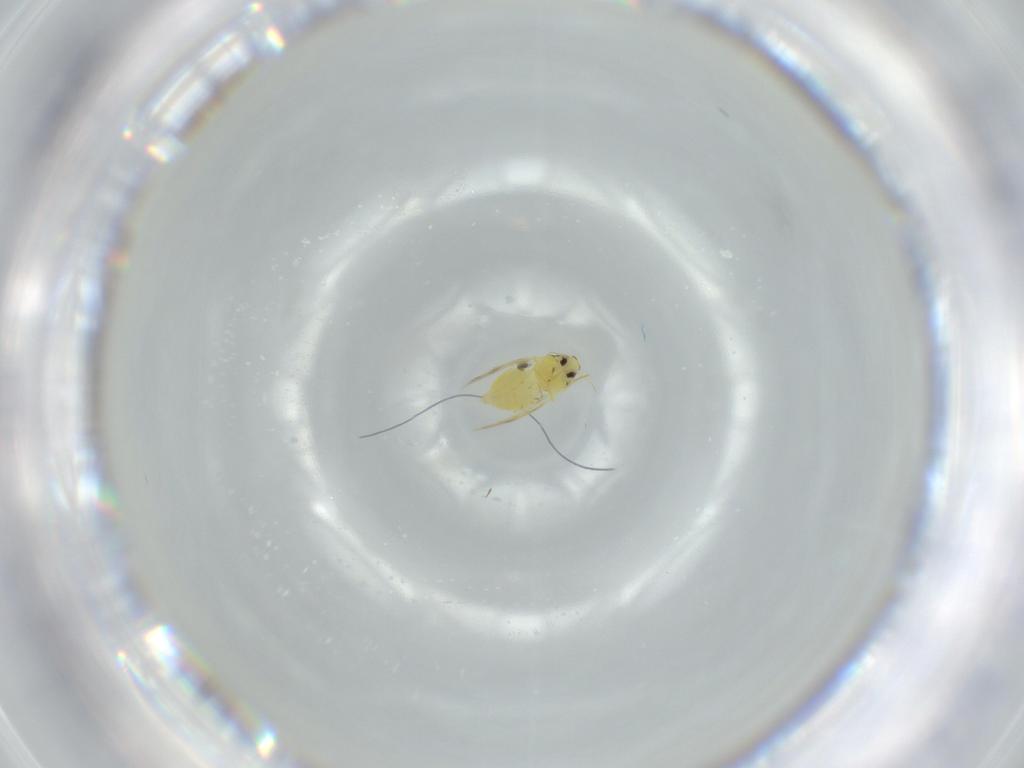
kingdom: Animalia
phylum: Arthropoda
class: Insecta
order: Hemiptera
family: Aleyrodidae
